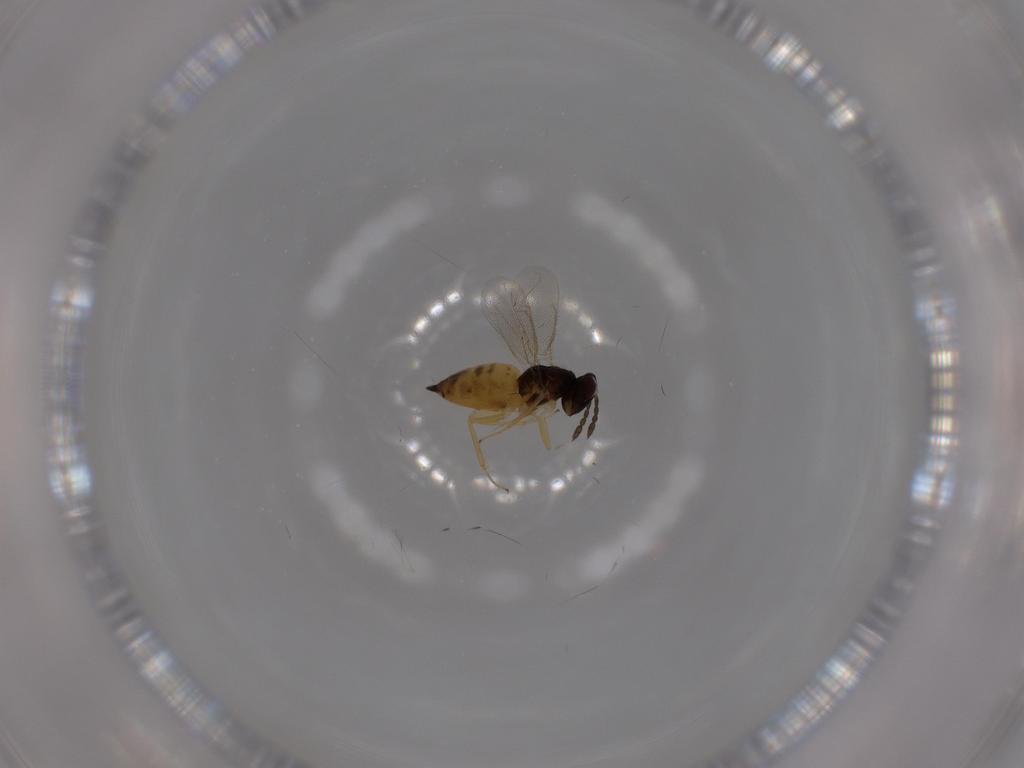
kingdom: Animalia
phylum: Arthropoda
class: Insecta
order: Hymenoptera
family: Eulophidae
